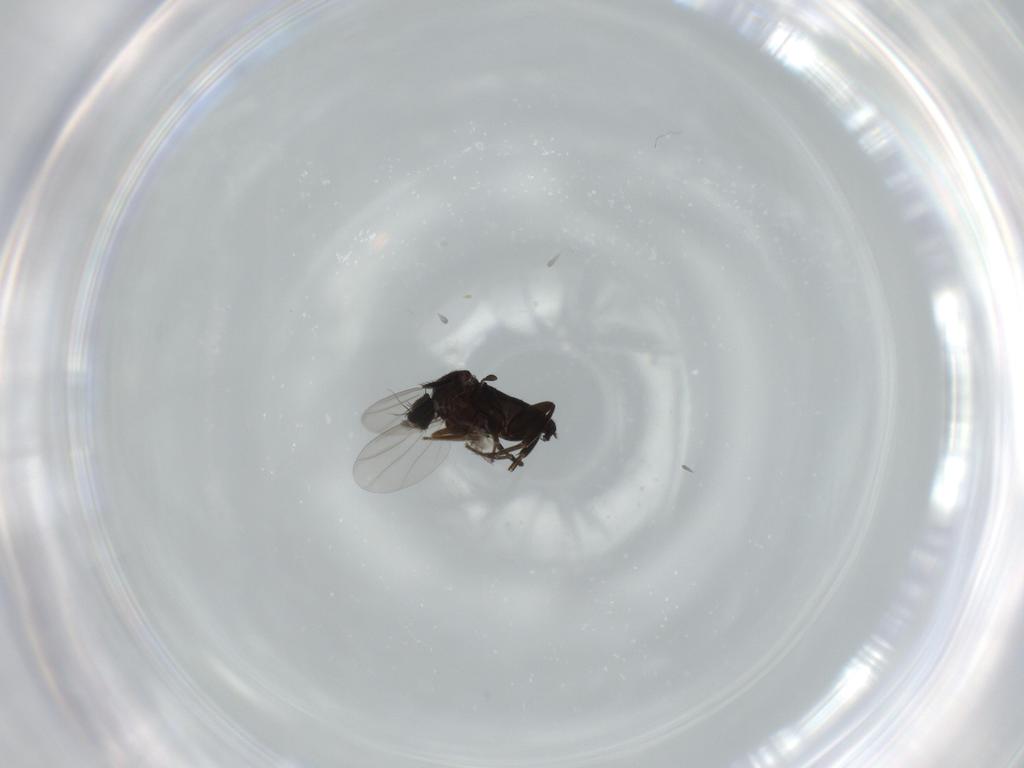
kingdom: Animalia
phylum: Arthropoda
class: Insecta
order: Diptera
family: Phoridae
